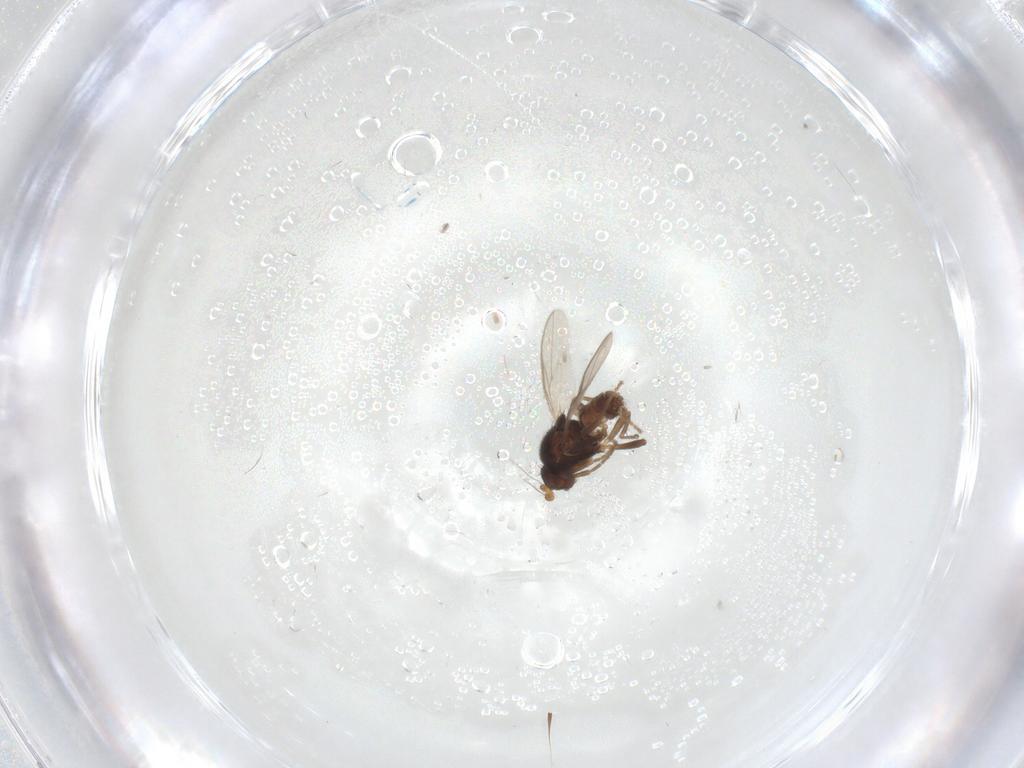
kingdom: Animalia
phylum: Arthropoda
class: Insecta
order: Diptera
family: Sphaeroceridae
